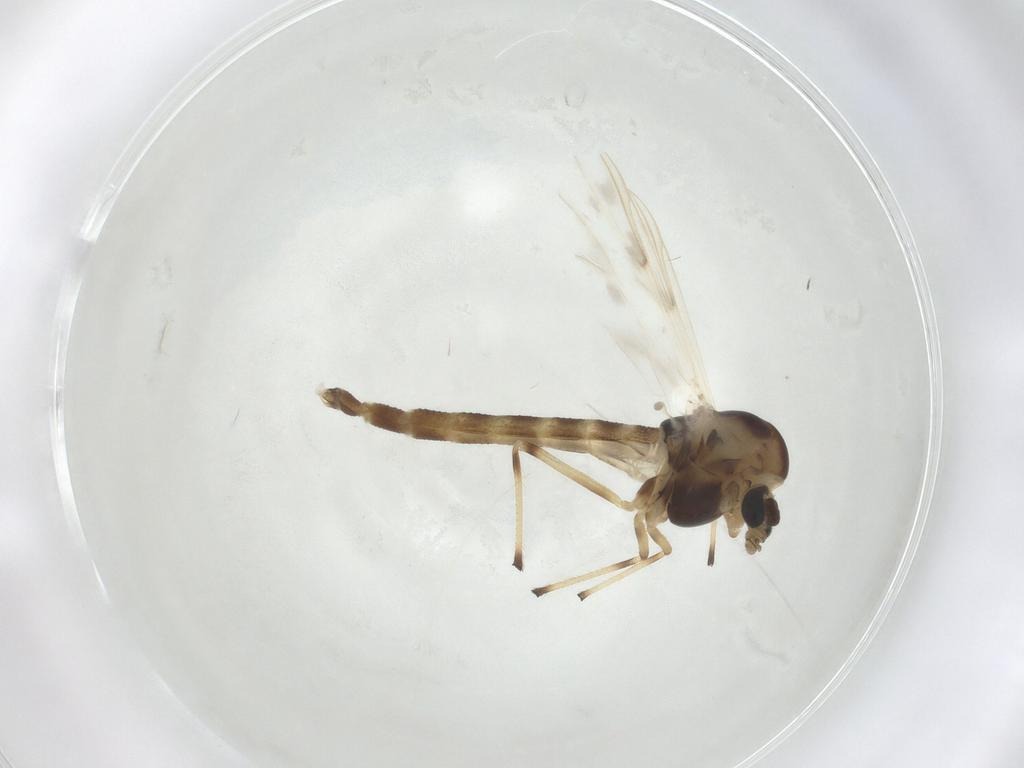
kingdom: Animalia
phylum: Arthropoda
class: Insecta
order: Diptera
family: Chironomidae
